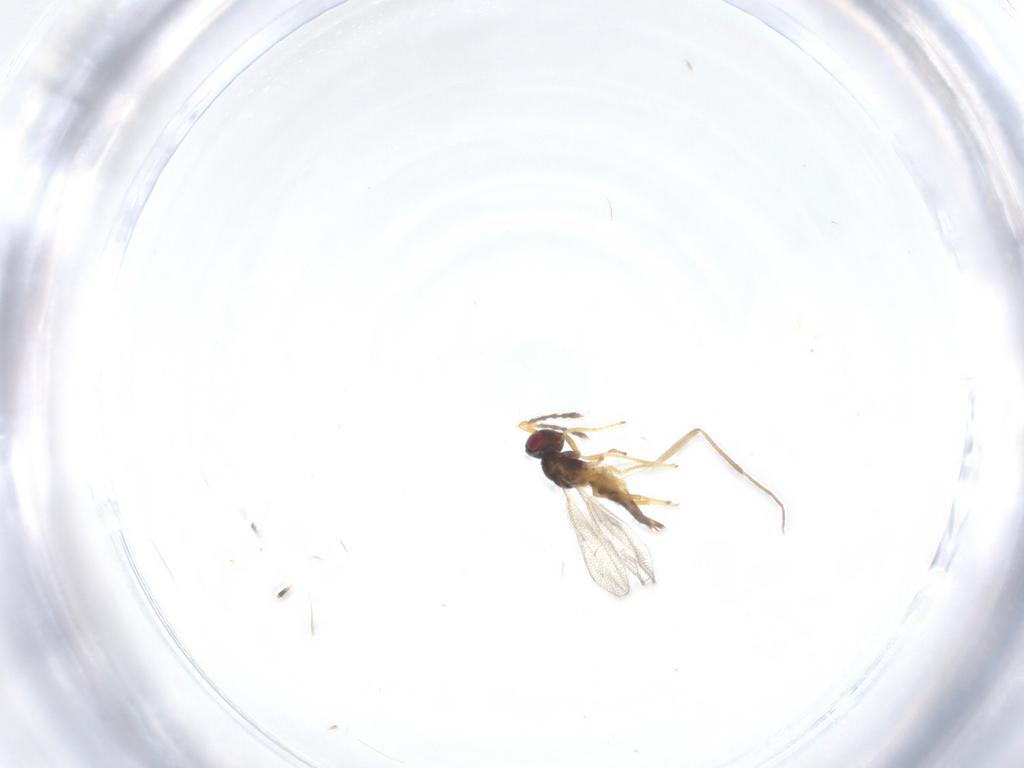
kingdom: Animalia
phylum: Arthropoda
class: Insecta
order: Hymenoptera
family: Eulophidae
